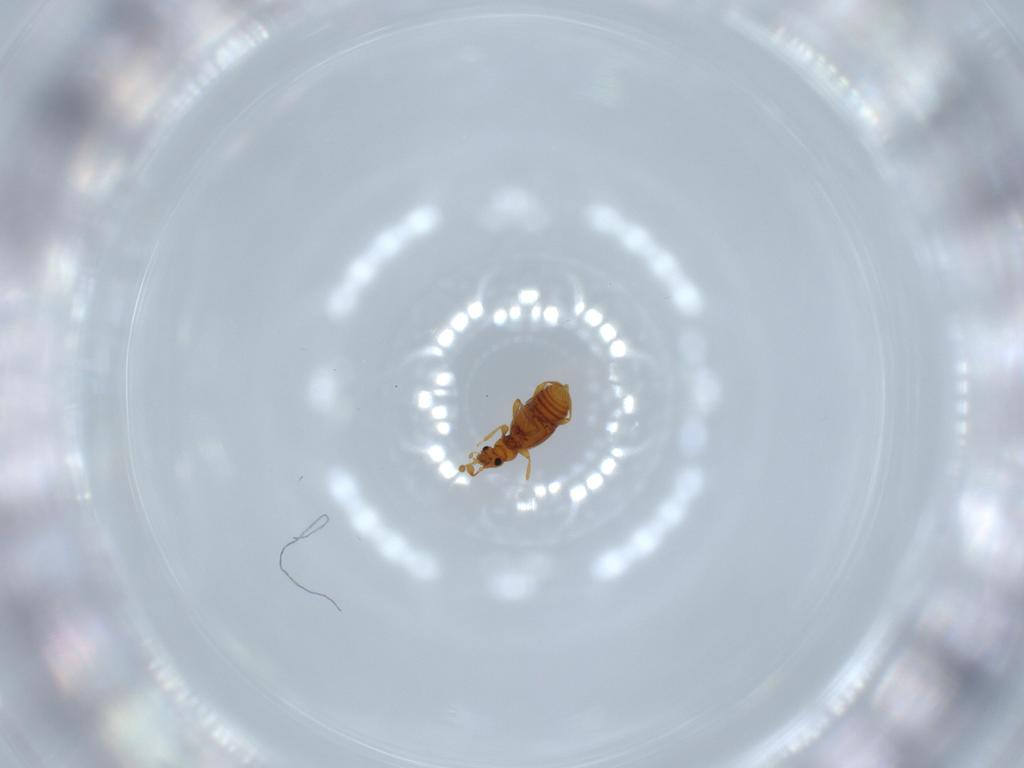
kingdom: Animalia
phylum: Arthropoda
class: Insecta
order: Coleoptera
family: Staphylinidae
